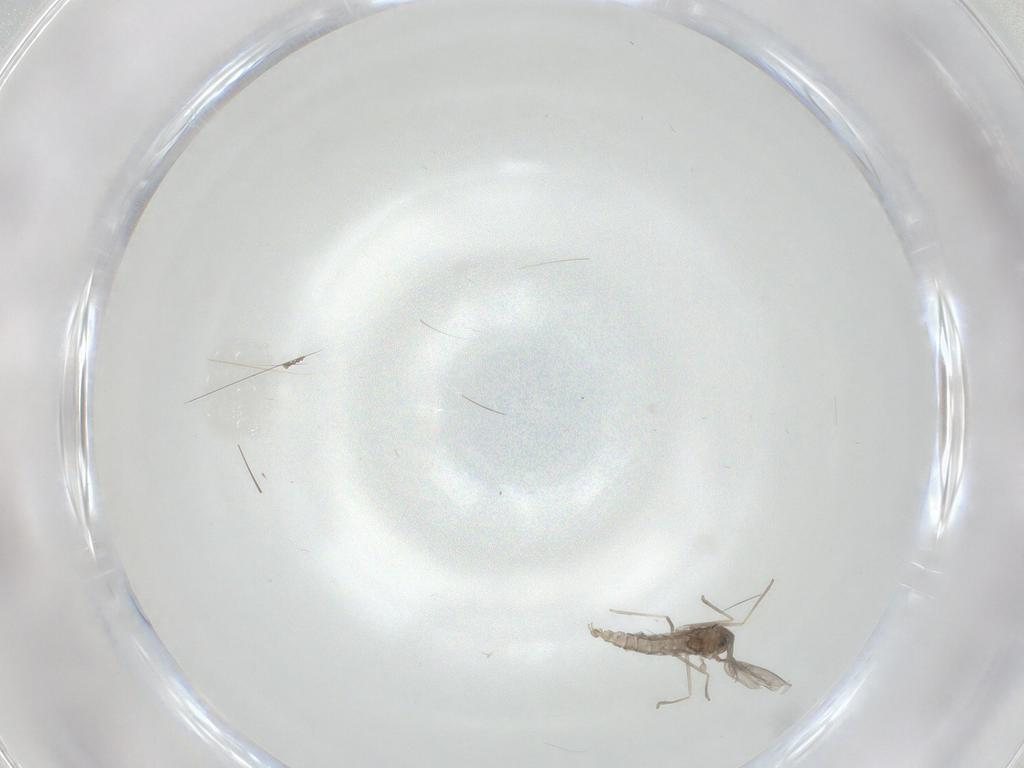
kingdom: Animalia
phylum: Arthropoda
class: Insecta
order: Diptera
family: Cecidomyiidae
